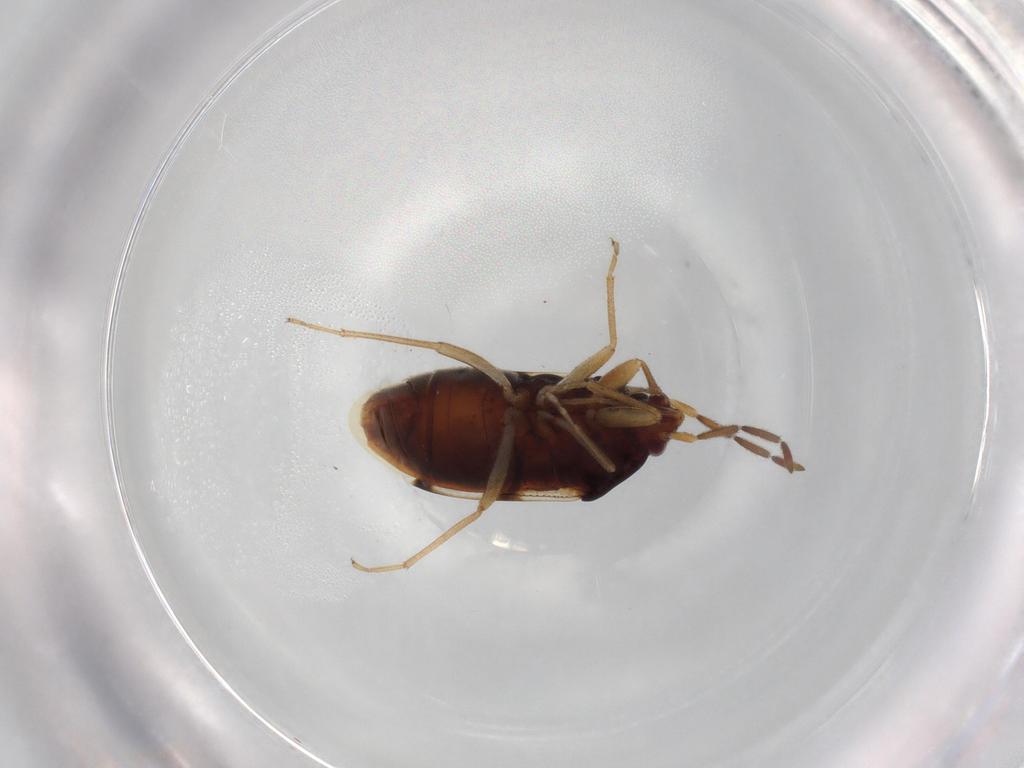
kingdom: Animalia
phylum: Arthropoda
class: Insecta
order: Hemiptera
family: Rhyparochromidae
